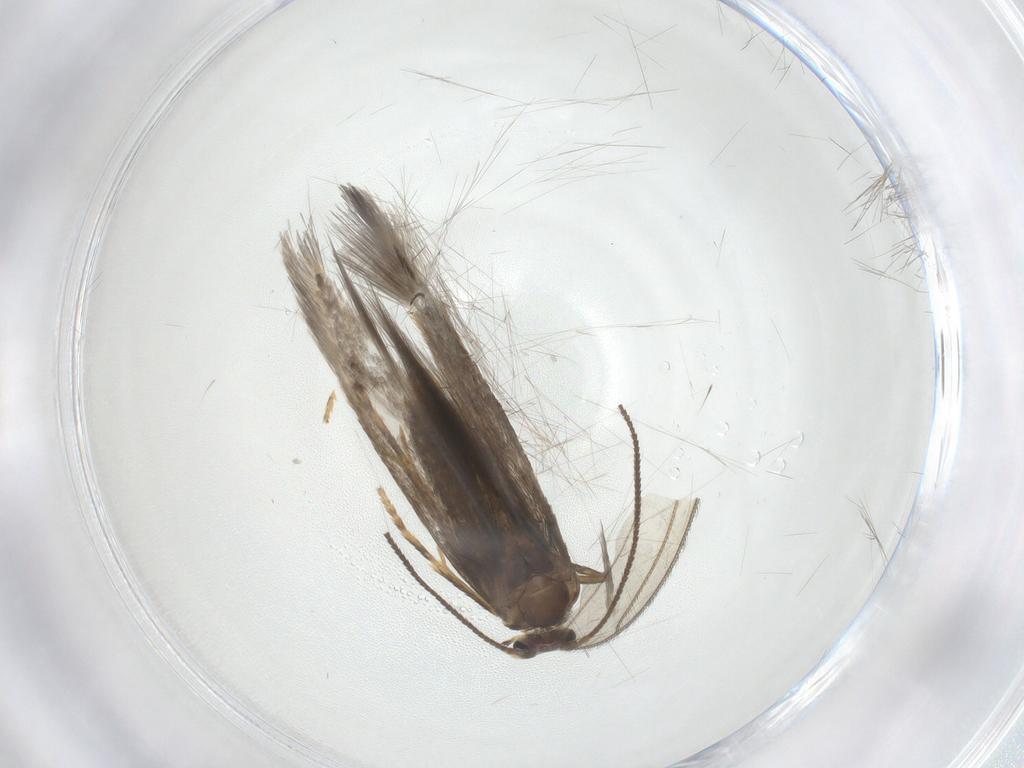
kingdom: Animalia
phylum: Arthropoda
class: Insecta
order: Lepidoptera
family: Nepticulidae
